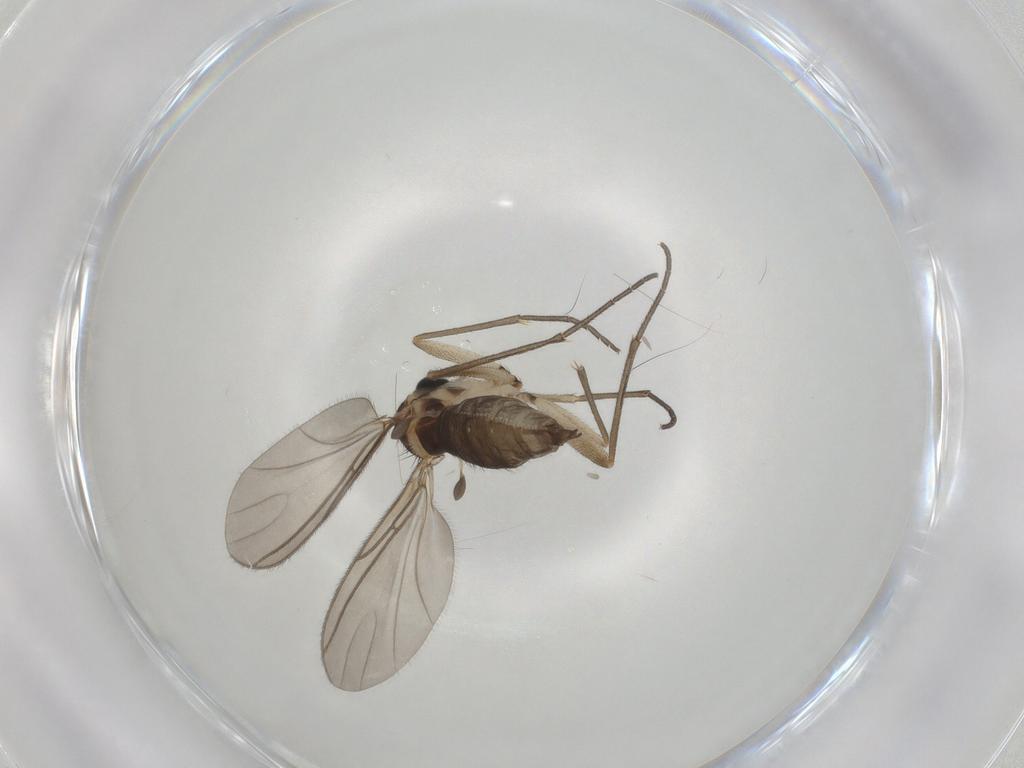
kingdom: Animalia
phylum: Arthropoda
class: Insecta
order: Diptera
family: Sciaridae
